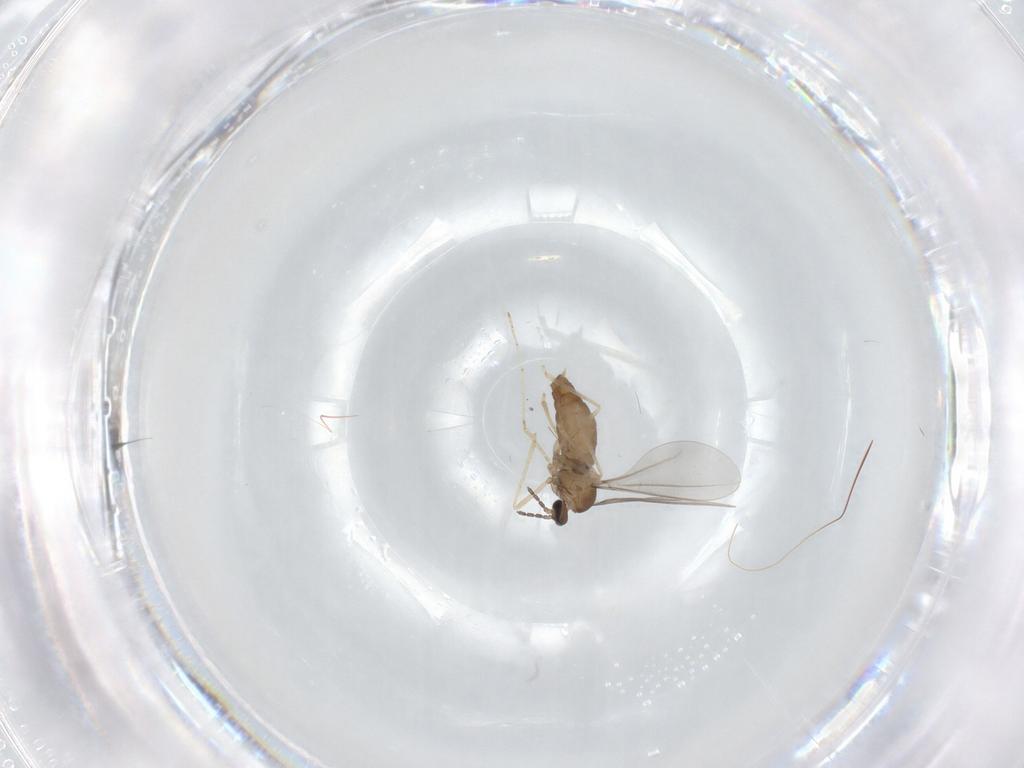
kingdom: Animalia
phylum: Arthropoda
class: Insecta
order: Diptera
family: Cecidomyiidae
